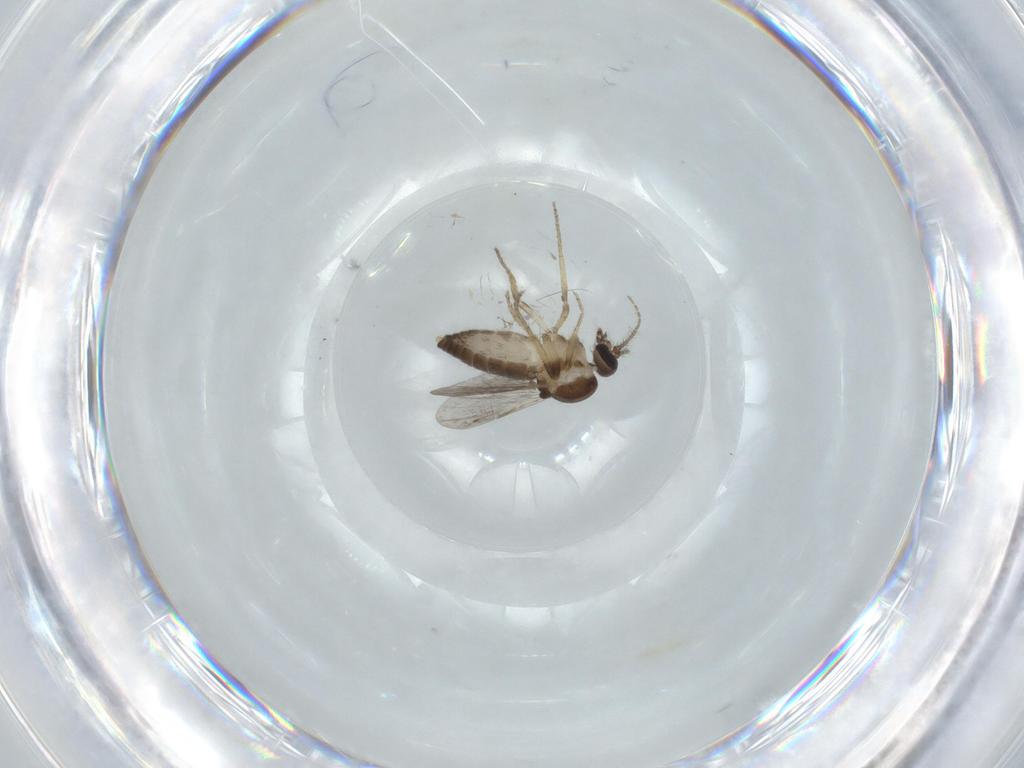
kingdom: Animalia
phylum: Arthropoda
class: Insecta
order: Diptera
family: Ceratopogonidae
